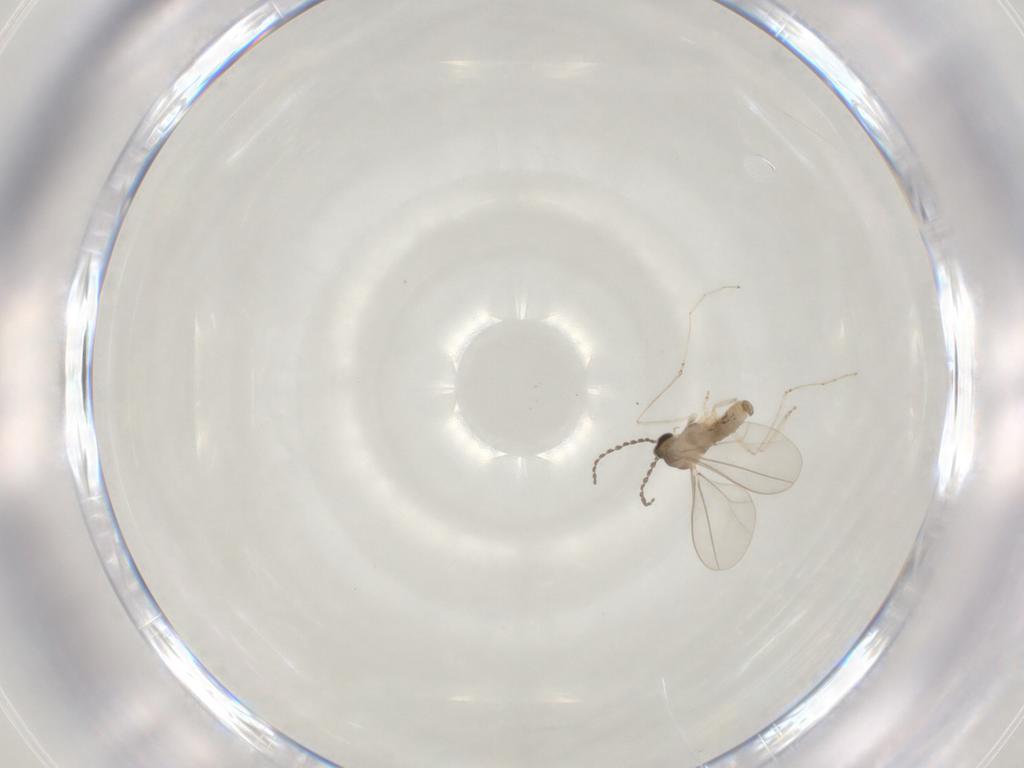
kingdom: Animalia
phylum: Arthropoda
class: Insecta
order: Diptera
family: Cecidomyiidae
